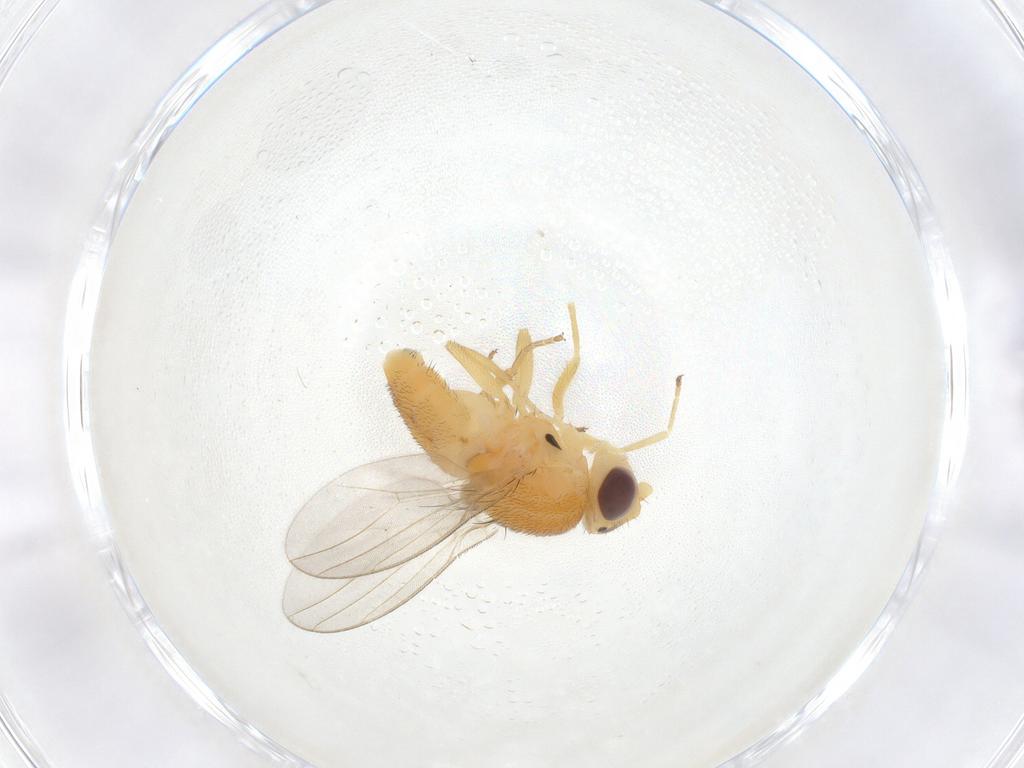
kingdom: Animalia
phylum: Arthropoda
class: Insecta
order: Diptera
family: Chloropidae
